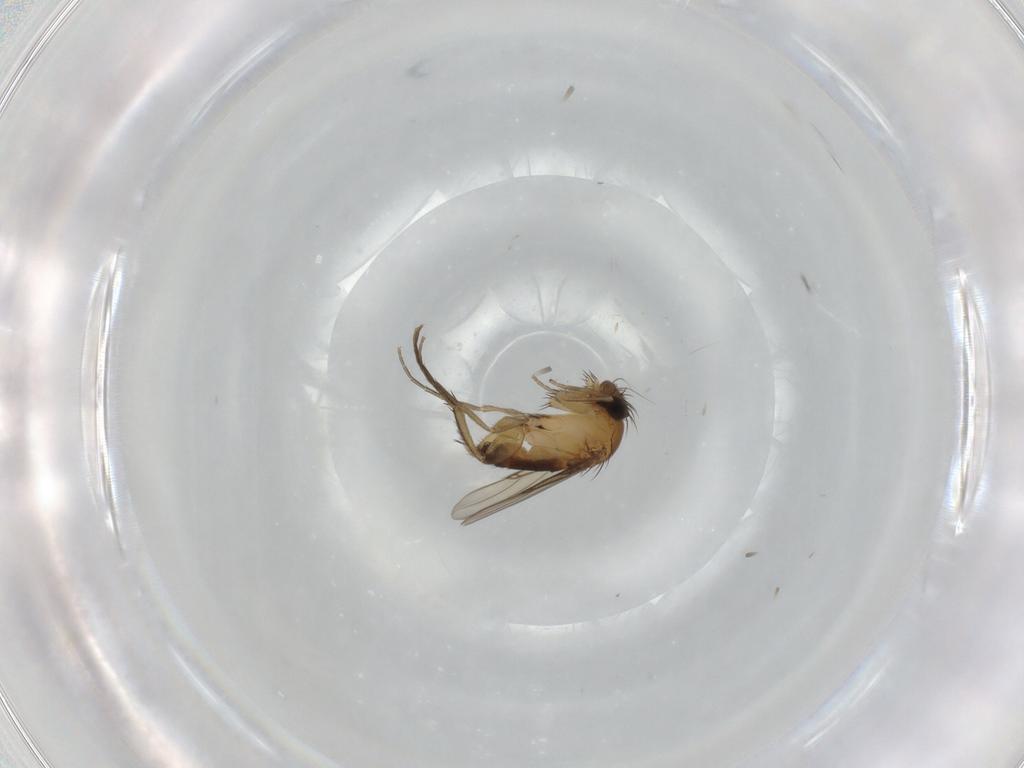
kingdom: Animalia
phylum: Arthropoda
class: Insecta
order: Diptera
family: Phoridae
